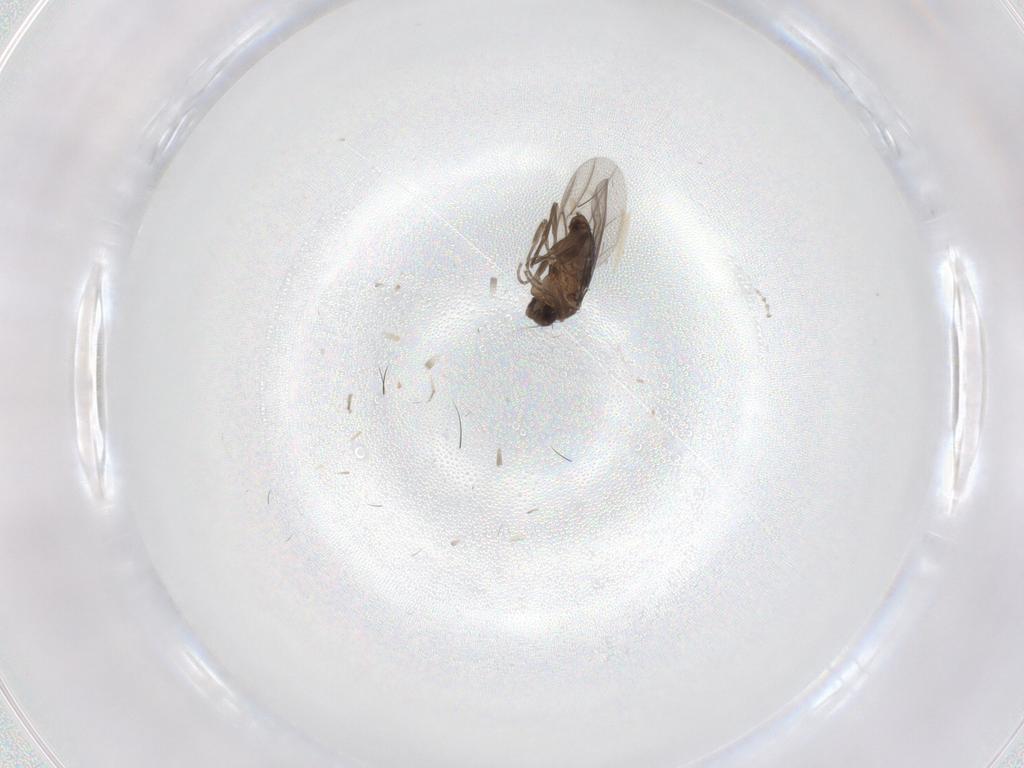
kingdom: Animalia
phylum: Arthropoda
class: Insecta
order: Diptera
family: Phoridae
